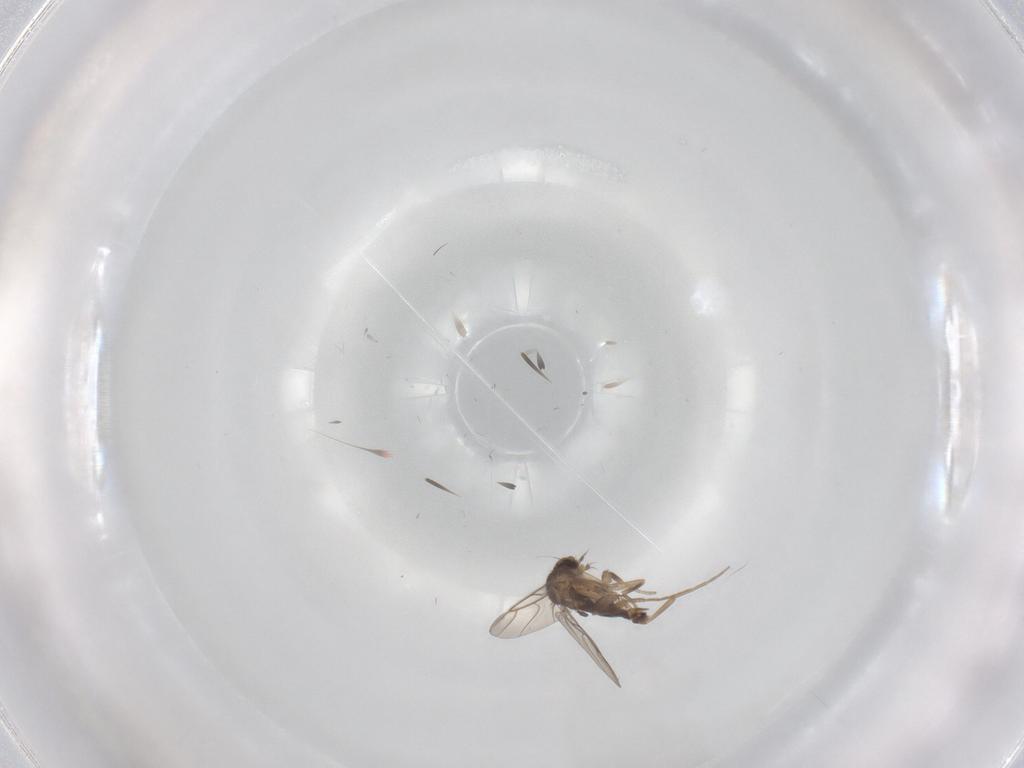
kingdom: Animalia
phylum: Arthropoda
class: Insecta
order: Diptera
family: Phoridae
